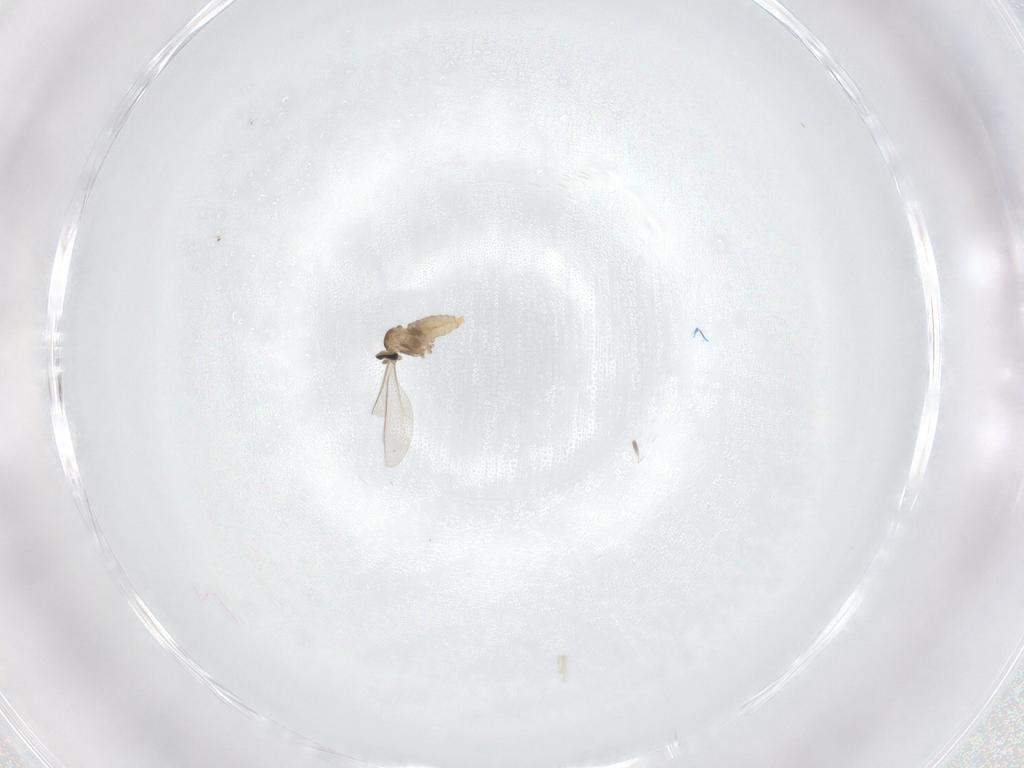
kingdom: Animalia
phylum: Arthropoda
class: Insecta
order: Diptera
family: Cecidomyiidae
